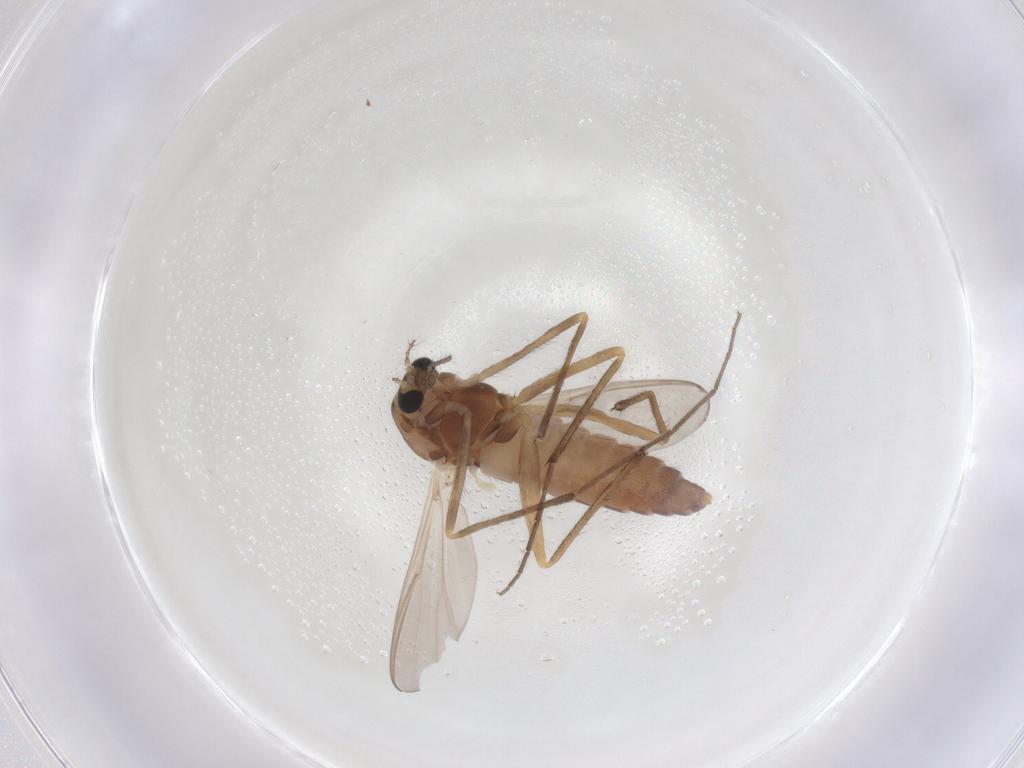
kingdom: Animalia
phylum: Arthropoda
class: Insecta
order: Diptera
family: Chironomidae
